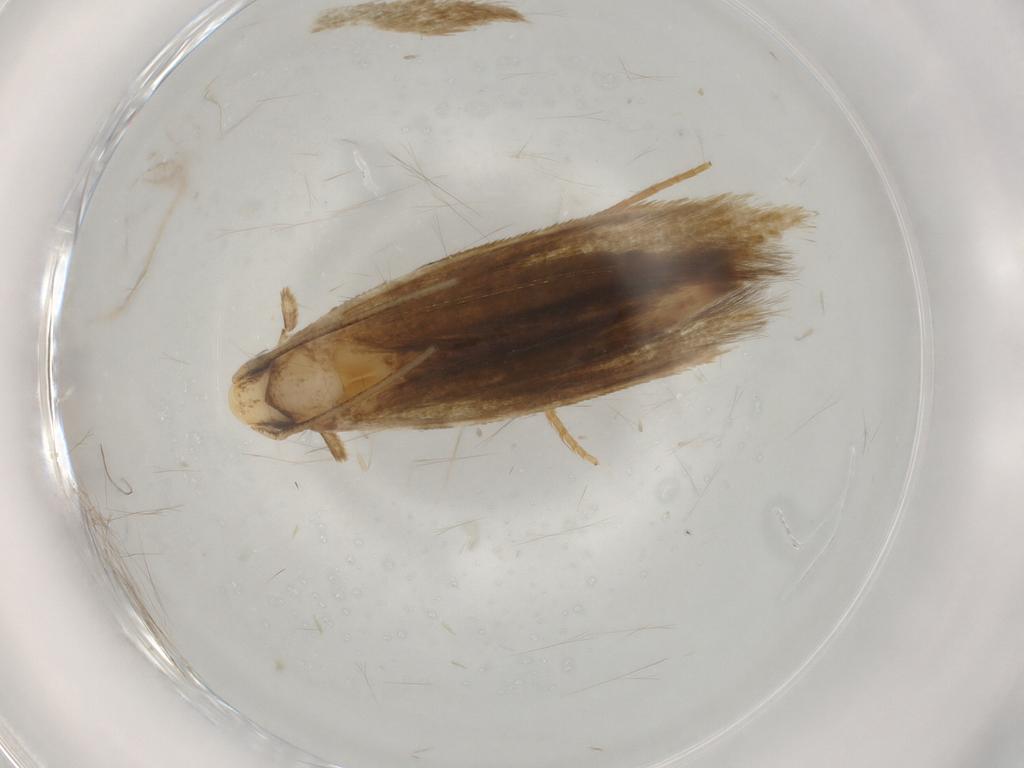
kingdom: Animalia
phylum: Arthropoda
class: Insecta
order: Lepidoptera
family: Tineidae
